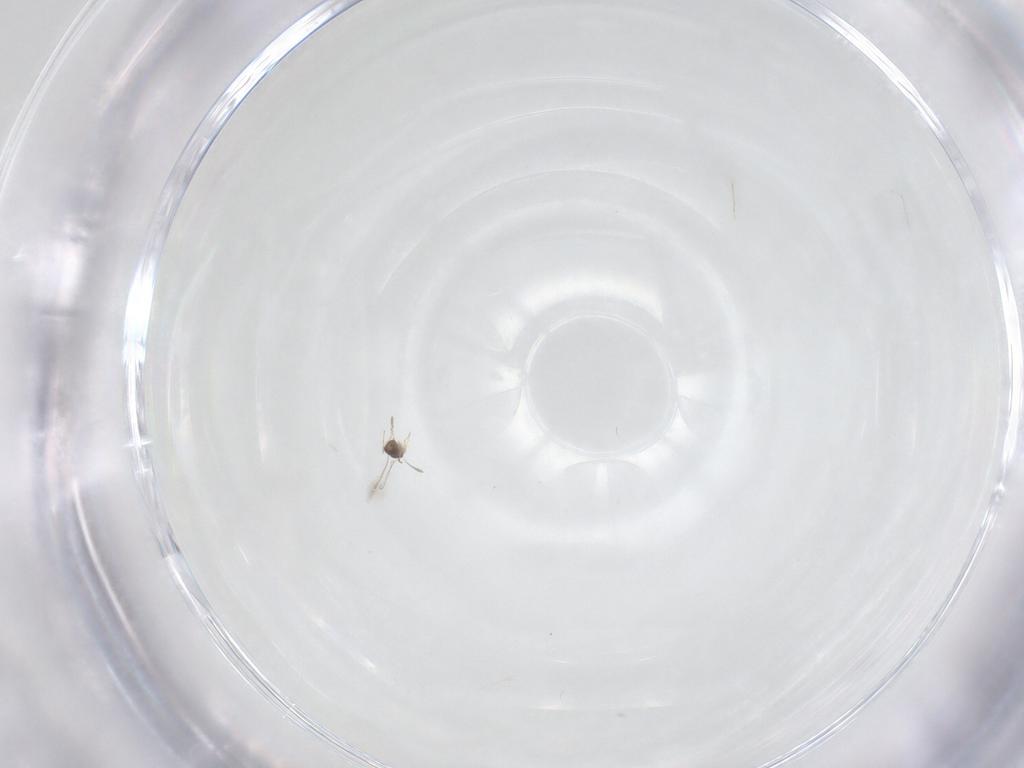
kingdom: Animalia
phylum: Arthropoda
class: Insecta
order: Hymenoptera
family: Mymaridae
